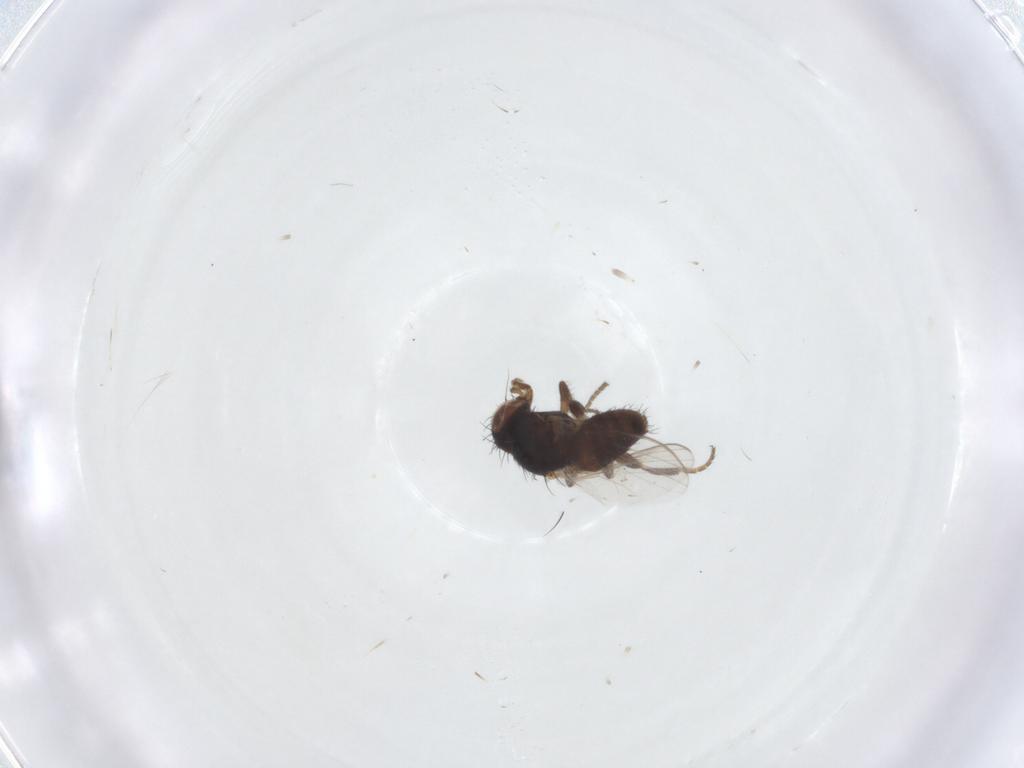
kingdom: Animalia
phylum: Arthropoda
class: Insecta
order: Diptera
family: Milichiidae
